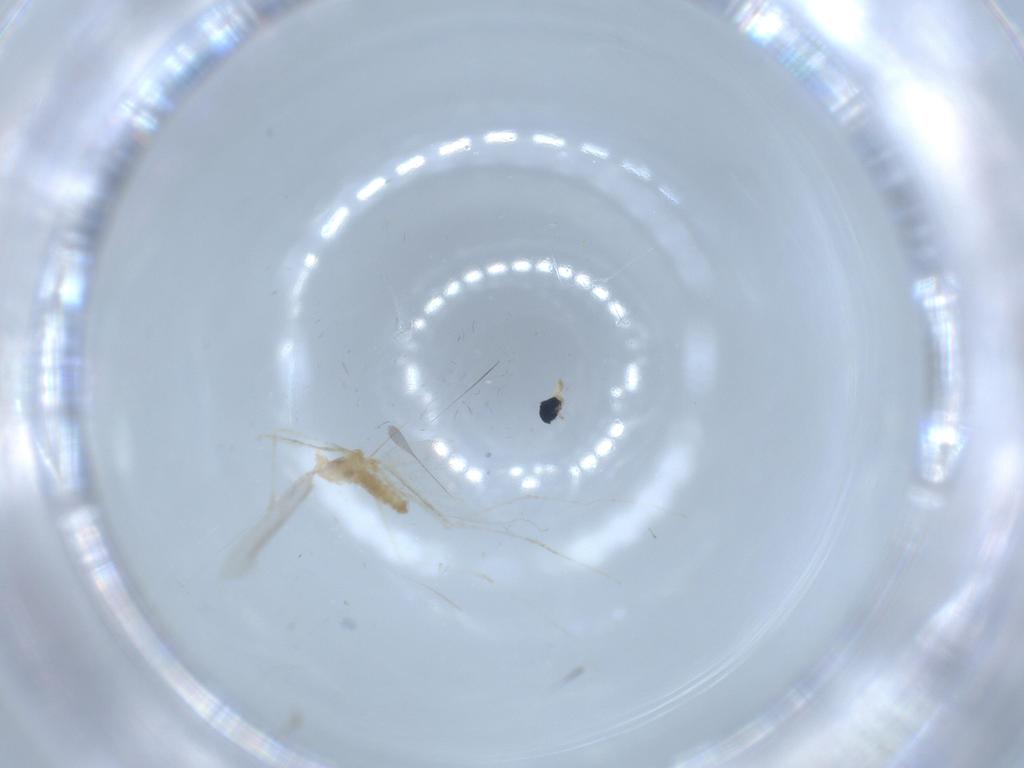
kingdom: Animalia
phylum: Arthropoda
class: Insecta
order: Diptera
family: Cecidomyiidae
